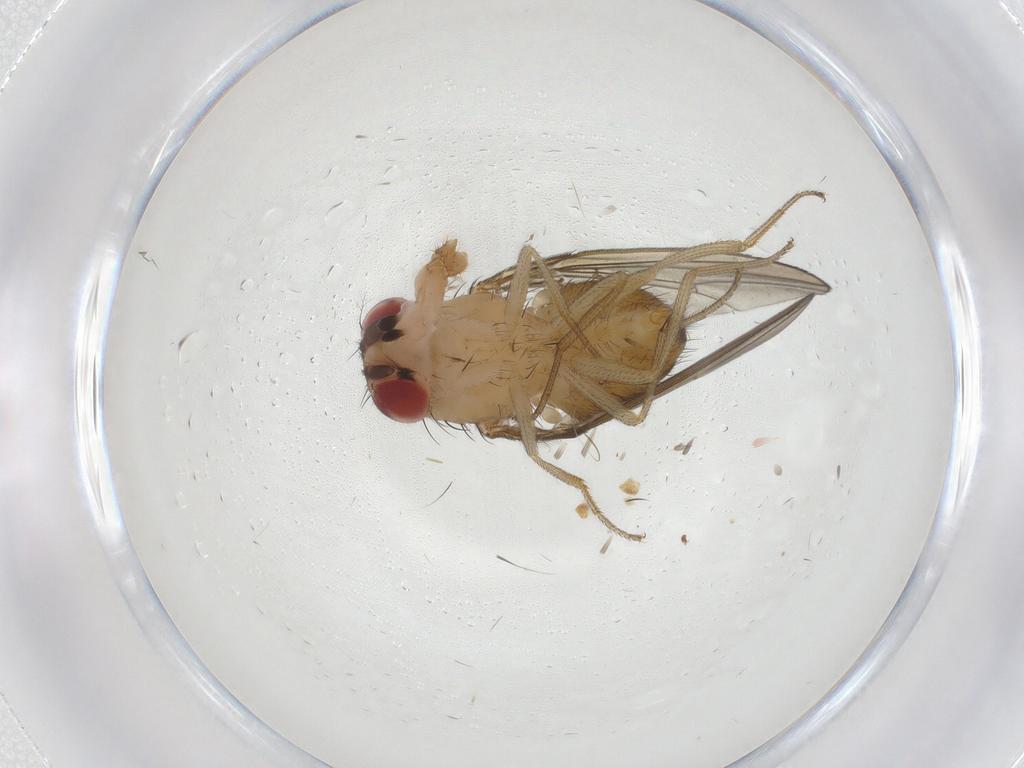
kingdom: Animalia
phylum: Arthropoda
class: Insecta
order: Diptera
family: Drosophilidae
